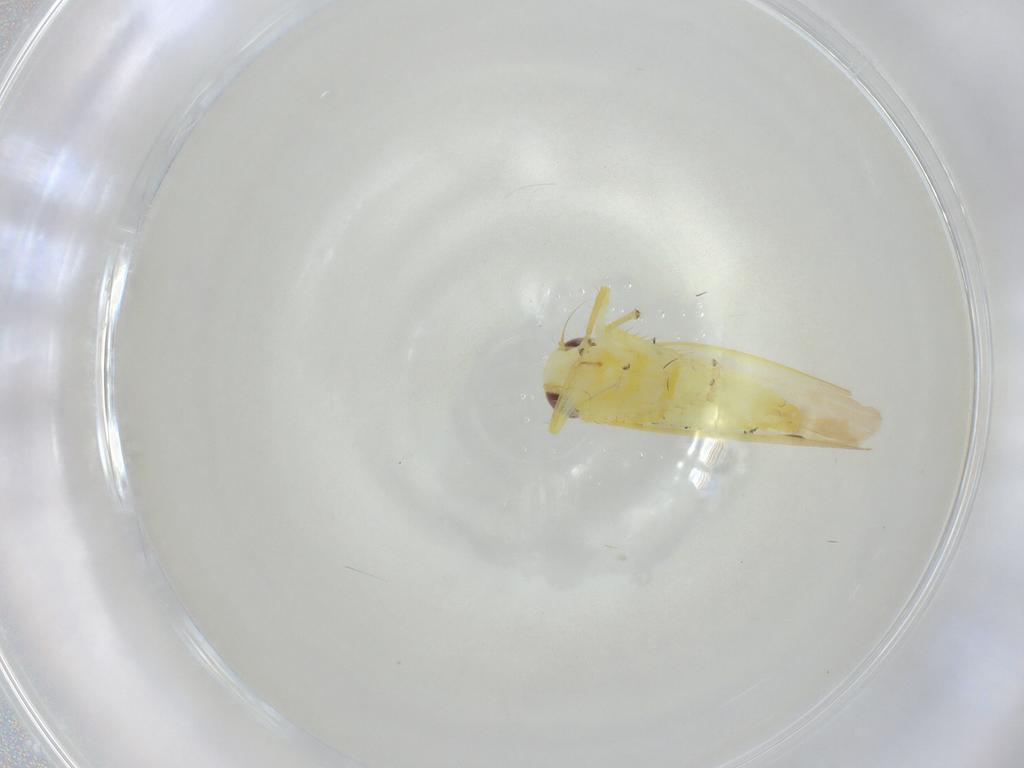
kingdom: Animalia
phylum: Arthropoda
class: Insecta
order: Hemiptera
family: Cicadellidae
